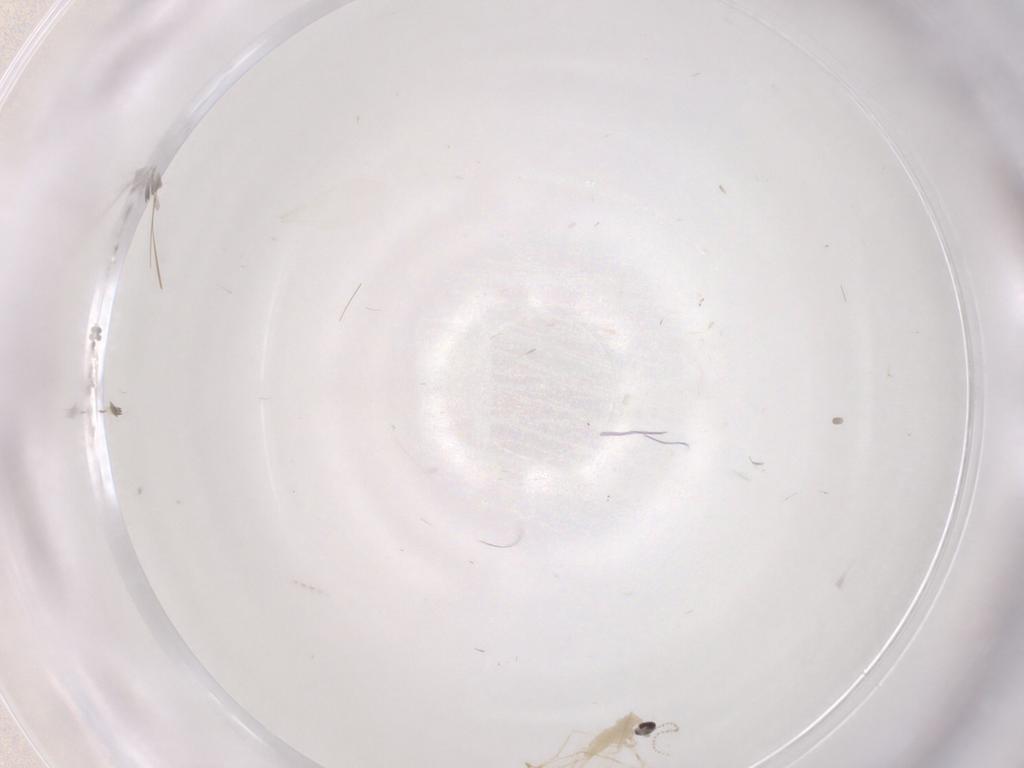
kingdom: Animalia
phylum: Arthropoda
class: Insecta
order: Diptera
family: Cecidomyiidae
